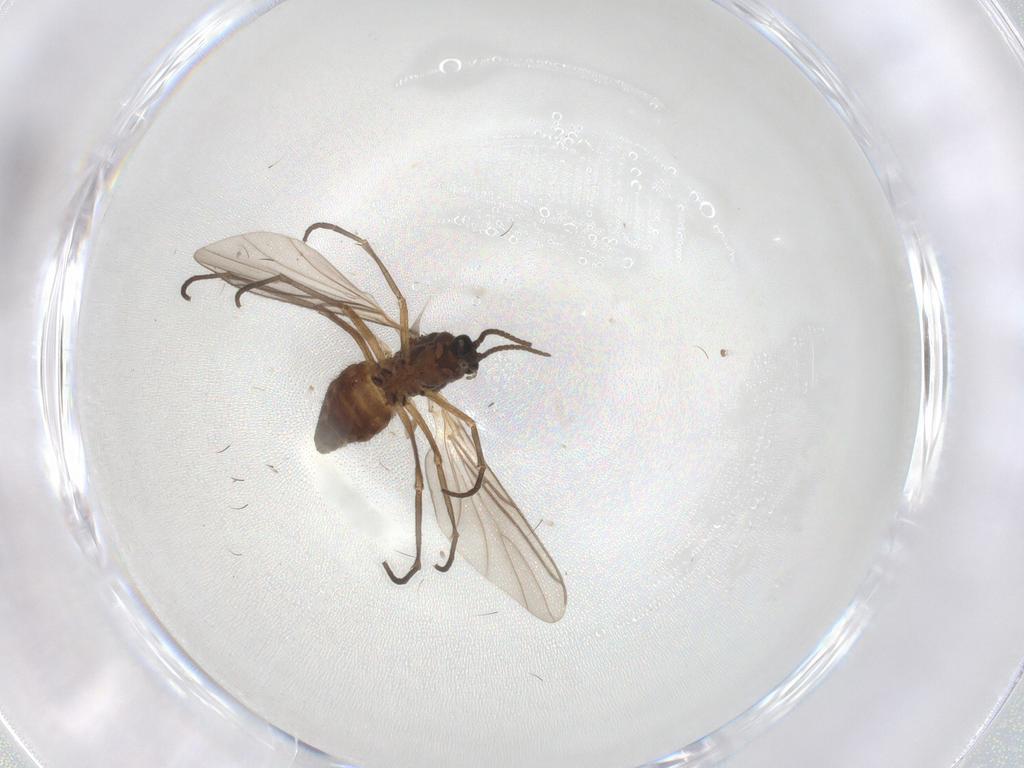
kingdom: Animalia
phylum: Arthropoda
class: Insecta
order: Diptera
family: Sciaridae
